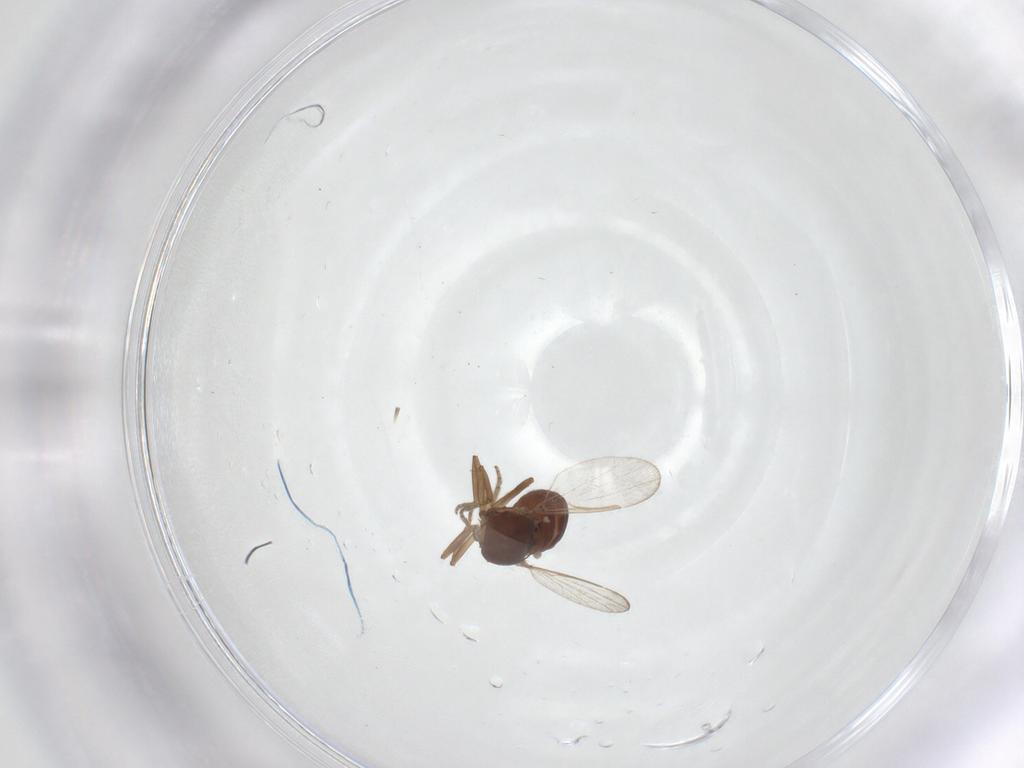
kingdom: Animalia
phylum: Arthropoda
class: Insecta
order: Diptera
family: Ceratopogonidae
